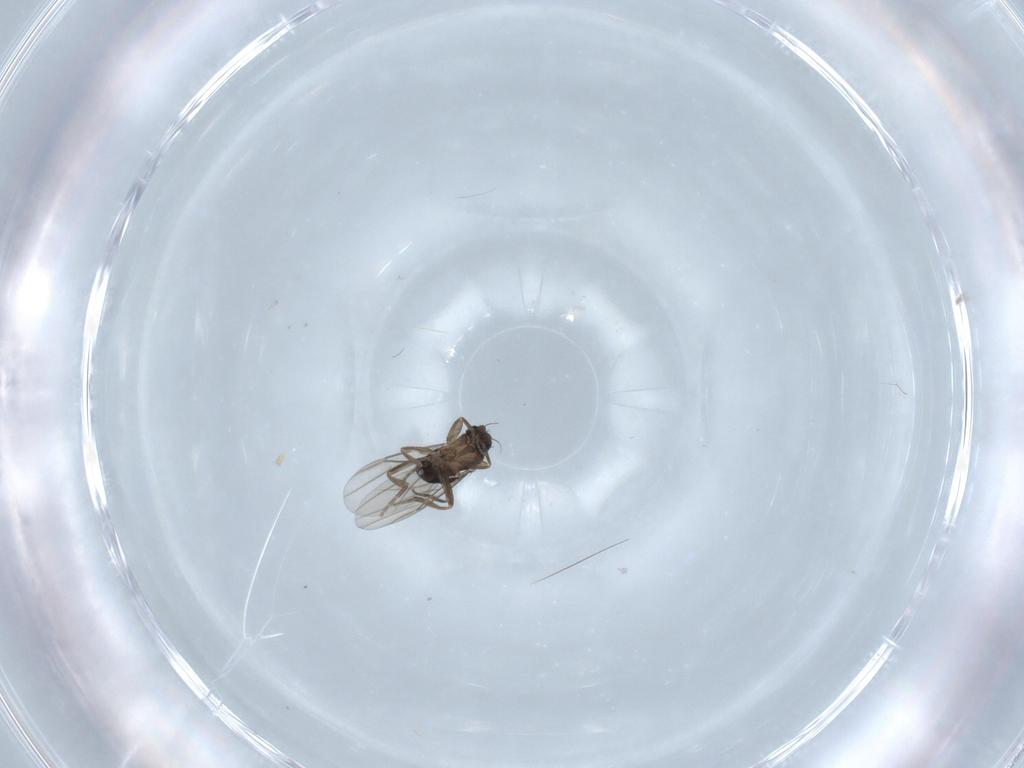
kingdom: Animalia
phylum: Arthropoda
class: Insecta
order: Diptera
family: Phoridae
